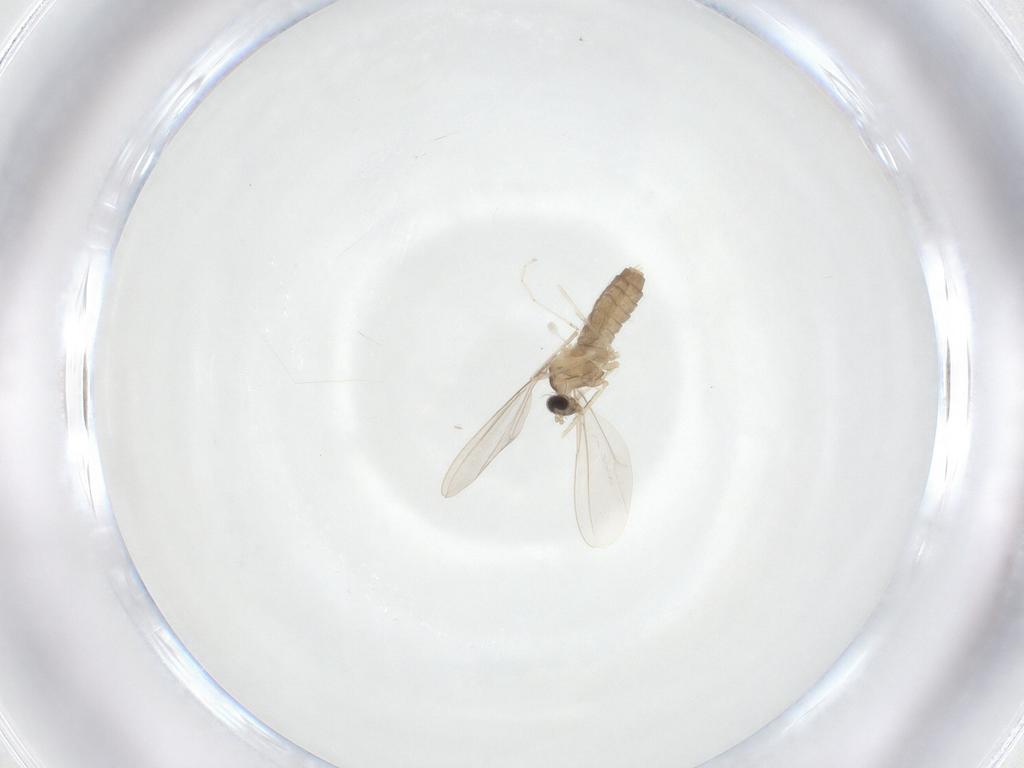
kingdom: Animalia
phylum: Arthropoda
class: Insecta
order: Diptera
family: Cecidomyiidae
